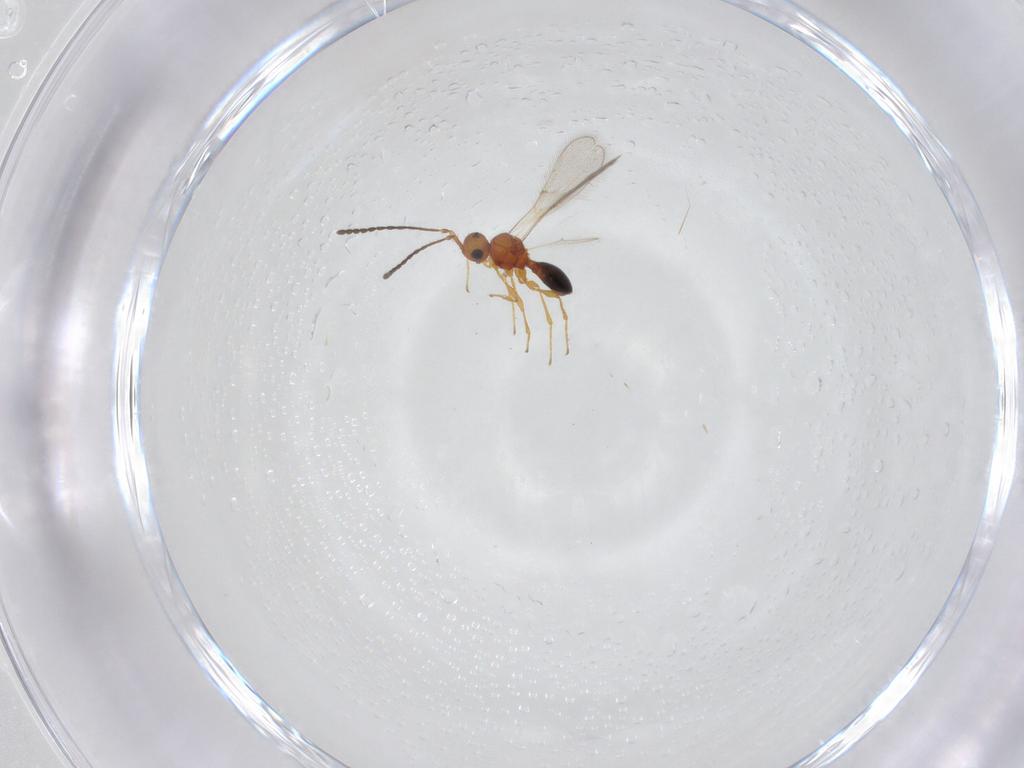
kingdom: Animalia
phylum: Arthropoda
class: Insecta
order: Hymenoptera
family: Diapriidae
